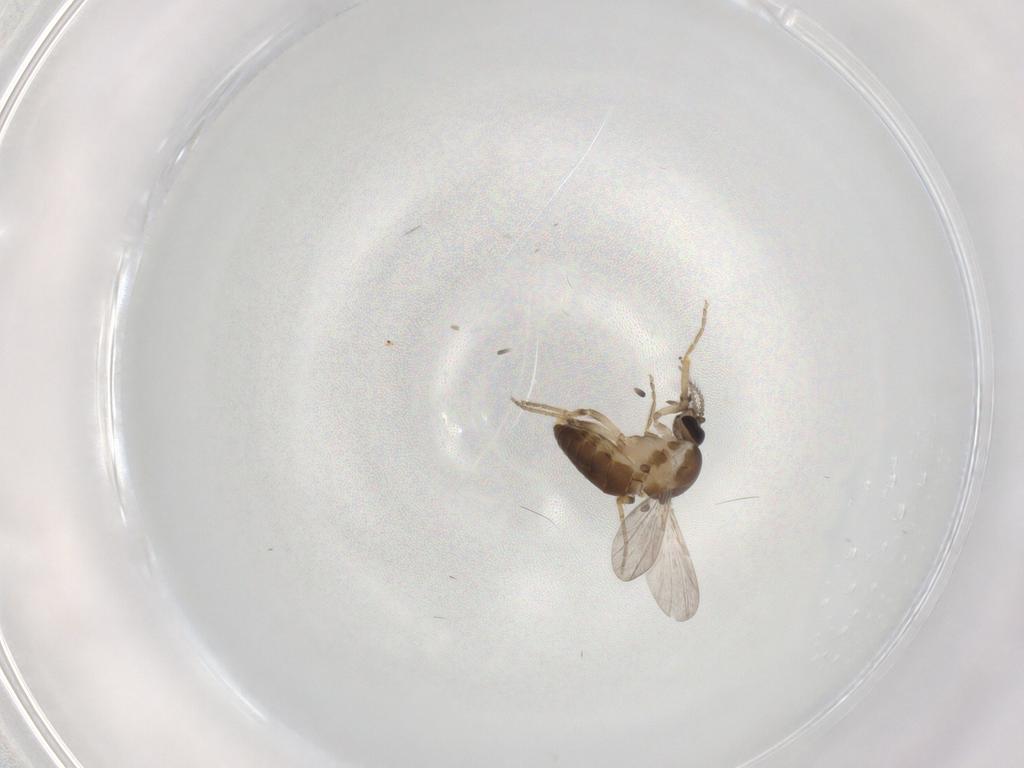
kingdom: Animalia
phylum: Arthropoda
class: Insecta
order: Diptera
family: Ceratopogonidae
